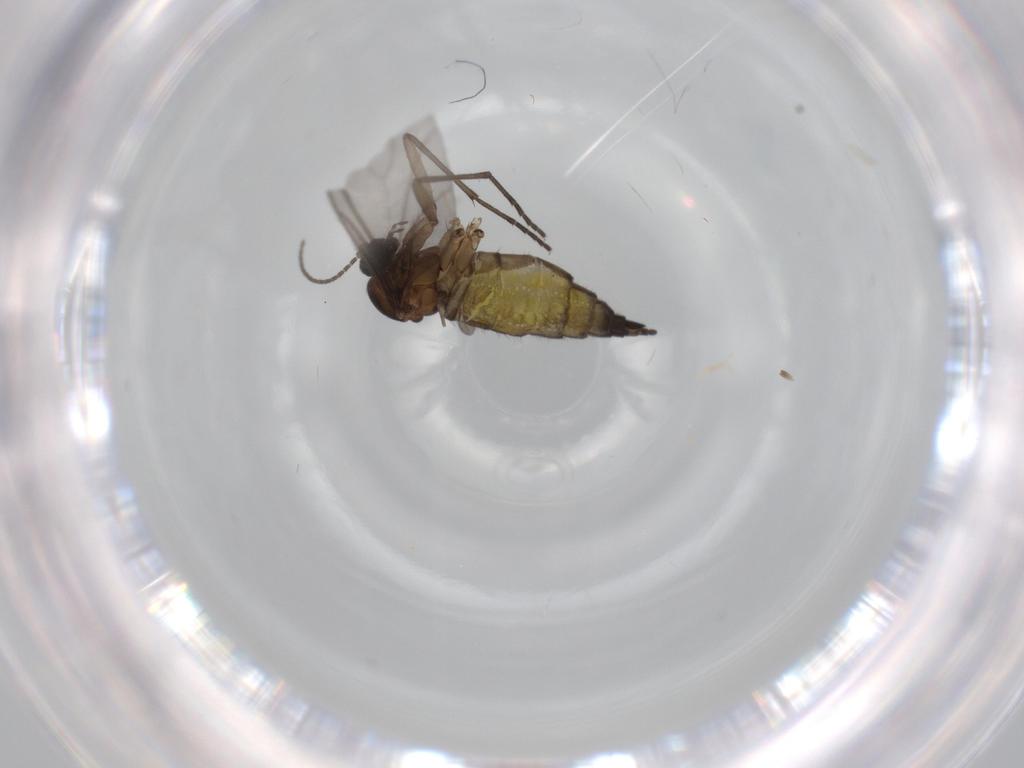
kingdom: Animalia
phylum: Arthropoda
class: Insecta
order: Diptera
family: Sciaridae
